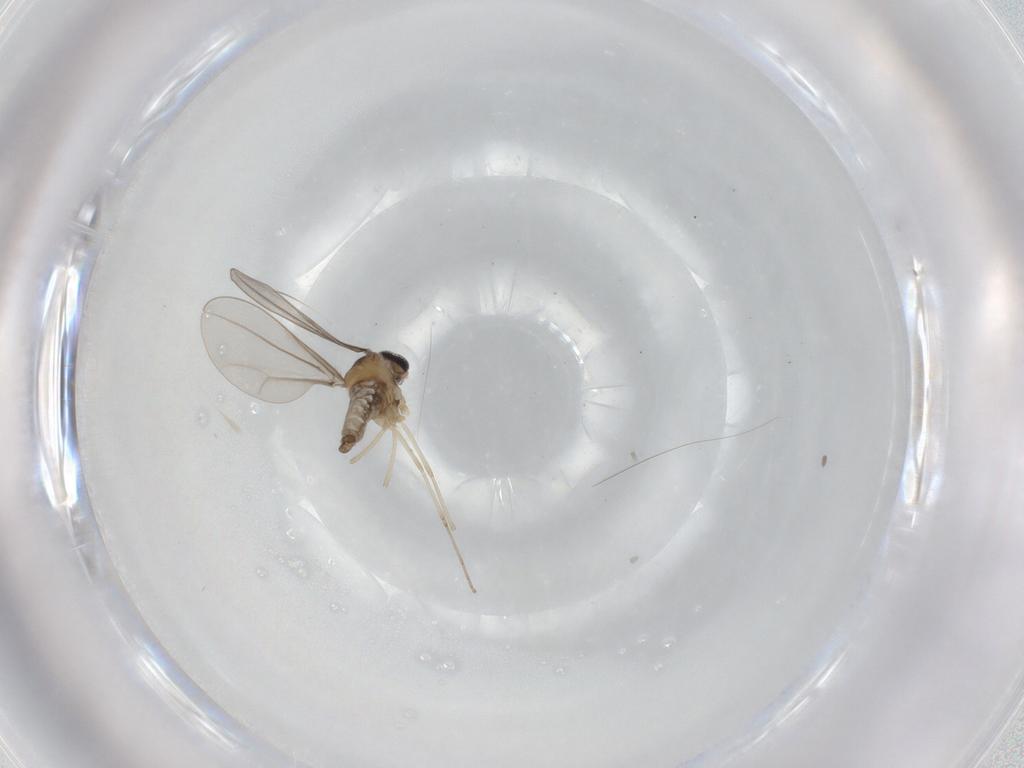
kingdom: Animalia
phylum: Arthropoda
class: Insecta
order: Diptera
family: Cecidomyiidae
